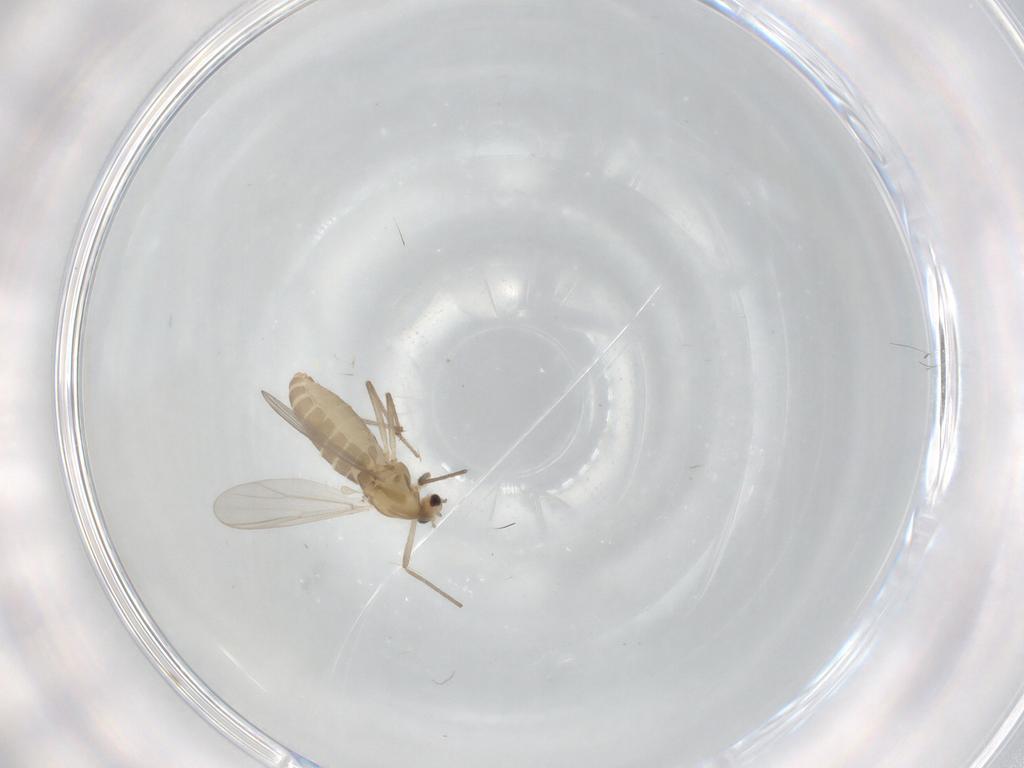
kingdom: Animalia
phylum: Arthropoda
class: Insecta
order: Diptera
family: Chironomidae
